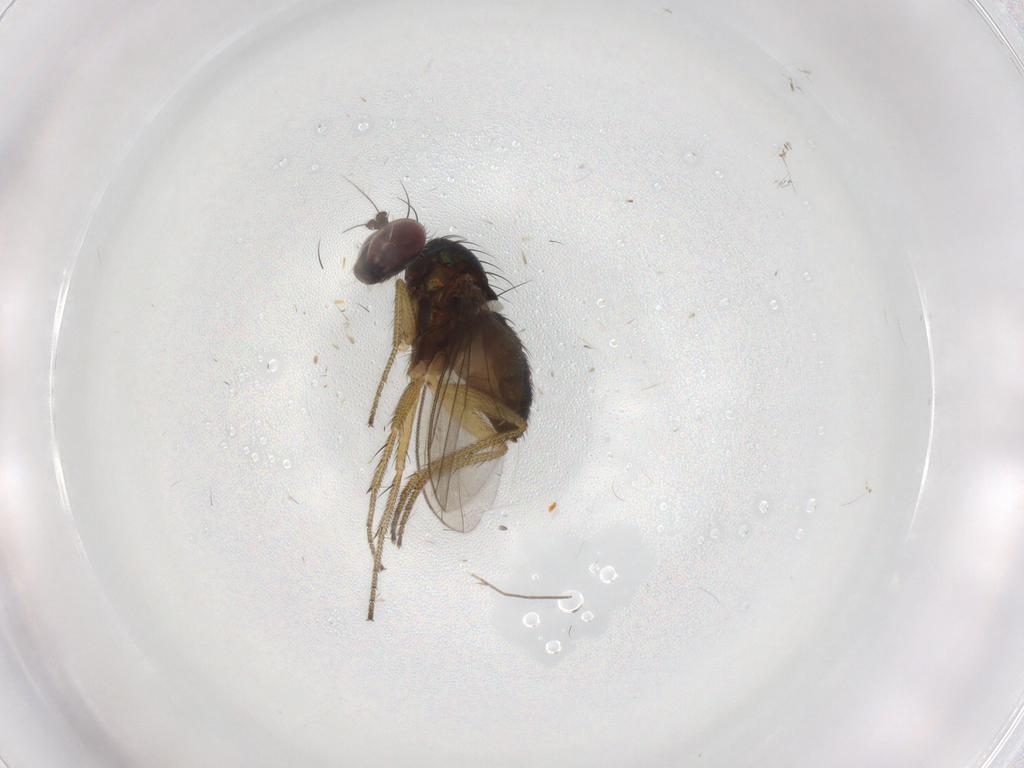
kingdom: Animalia
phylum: Arthropoda
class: Insecta
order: Diptera
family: Dolichopodidae
